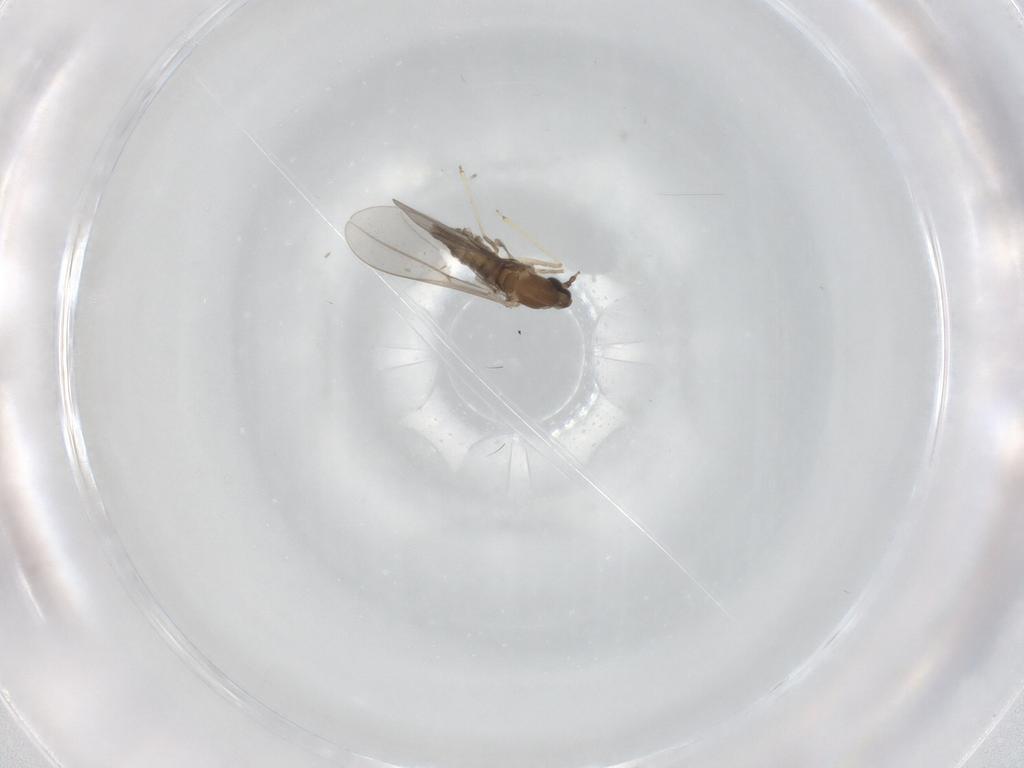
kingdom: Animalia
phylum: Arthropoda
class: Insecta
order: Diptera
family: Cecidomyiidae
